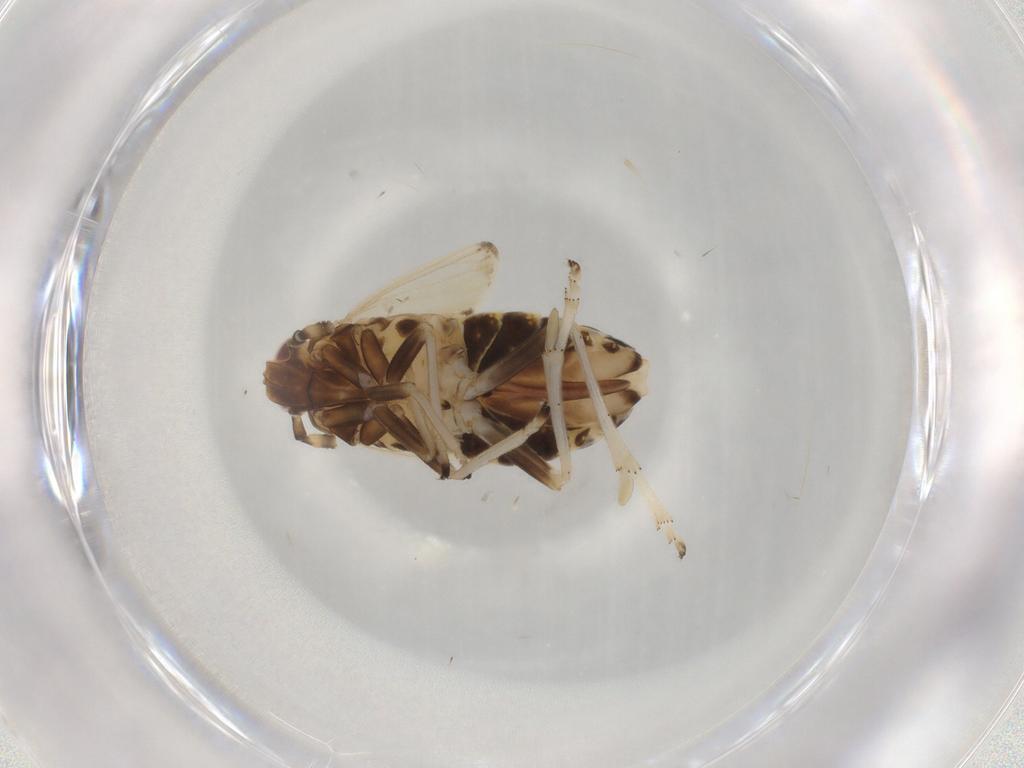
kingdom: Animalia
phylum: Arthropoda
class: Insecta
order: Hemiptera
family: Delphacidae
